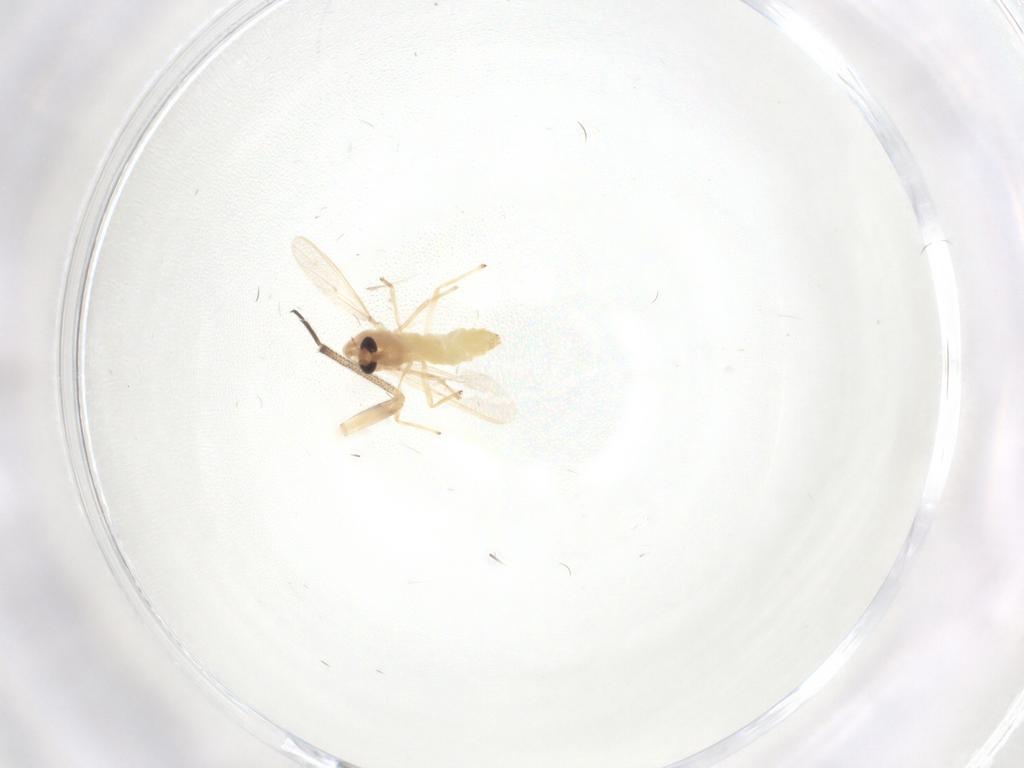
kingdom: Animalia
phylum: Arthropoda
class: Insecta
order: Diptera
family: Chironomidae
